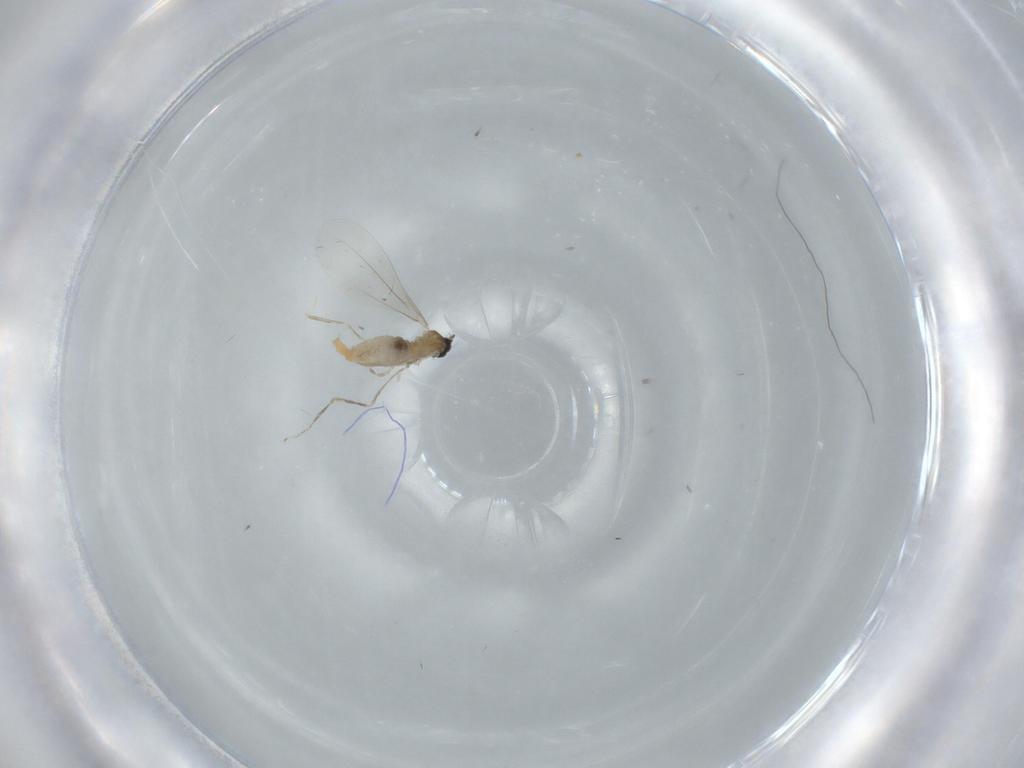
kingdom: Animalia
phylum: Arthropoda
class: Insecta
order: Diptera
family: Cecidomyiidae
